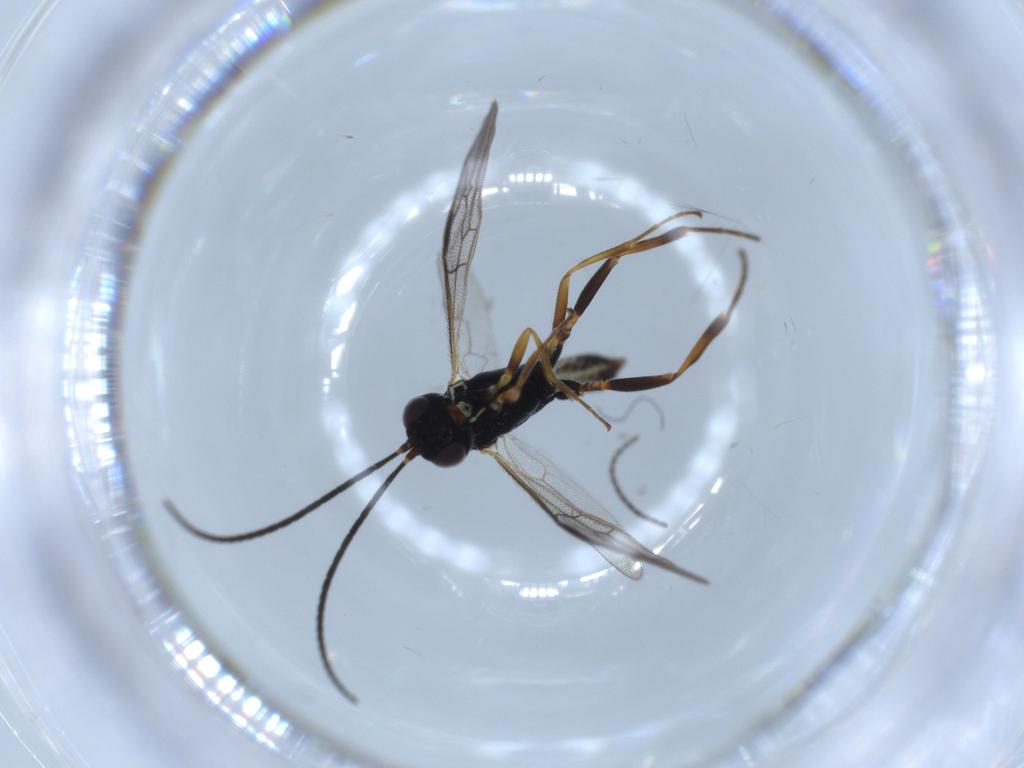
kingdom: Animalia
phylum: Arthropoda
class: Insecta
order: Hymenoptera
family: Ichneumonidae
